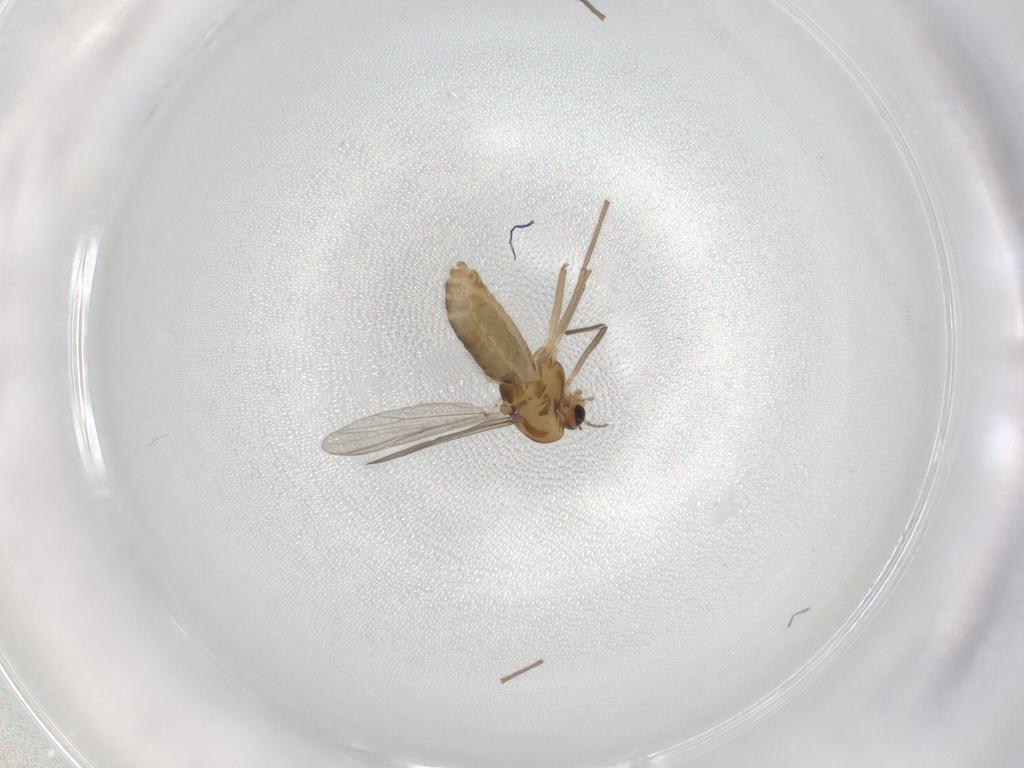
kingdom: Animalia
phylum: Arthropoda
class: Insecta
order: Diptera
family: Chironomidae
